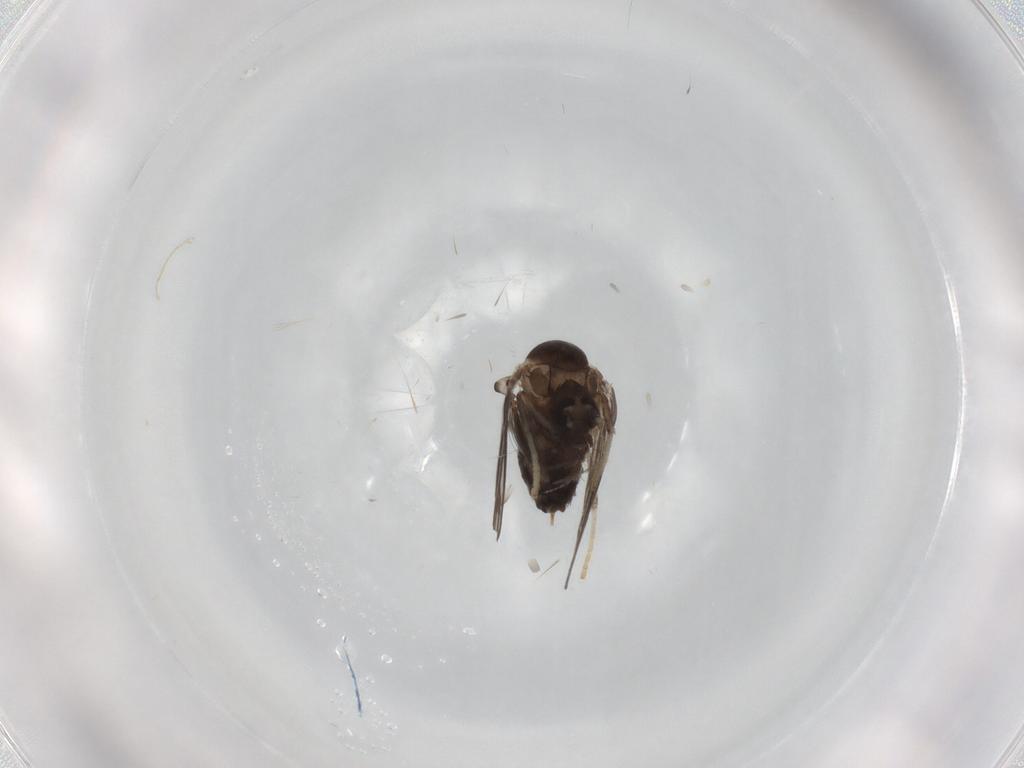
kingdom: Animalia
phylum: Arthropoda
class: Insecta
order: Diptera
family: Psychodidae
